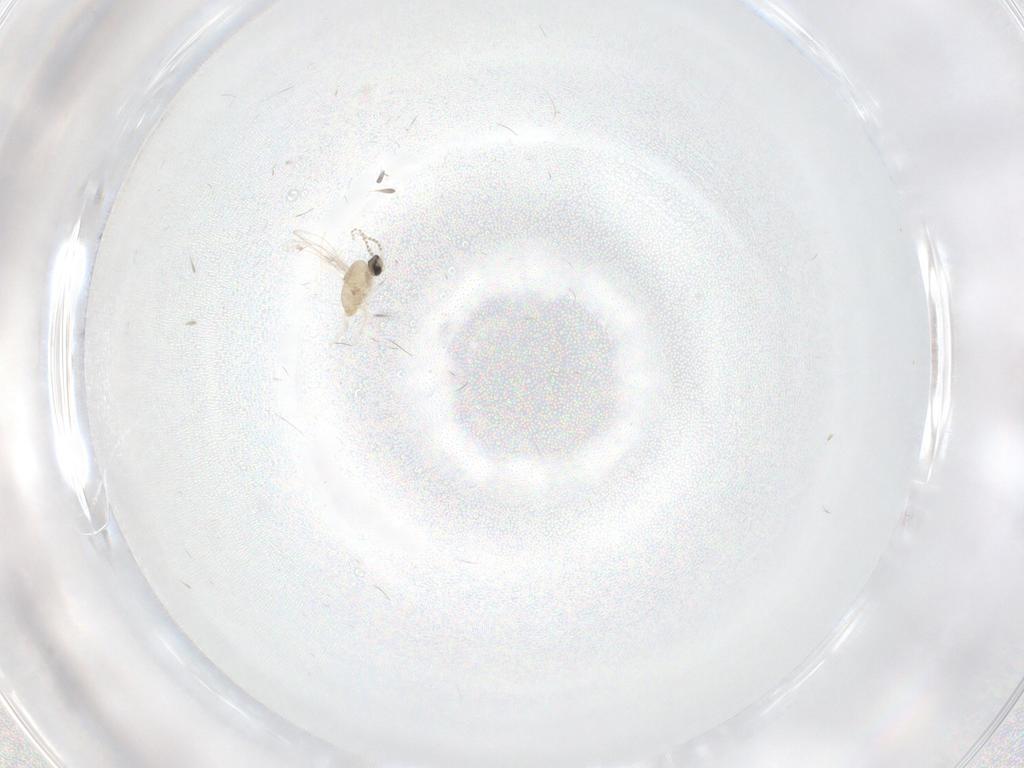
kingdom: Animalia
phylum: Arthropoda
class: Insecta
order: Diptera
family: Cecidomyiidae
